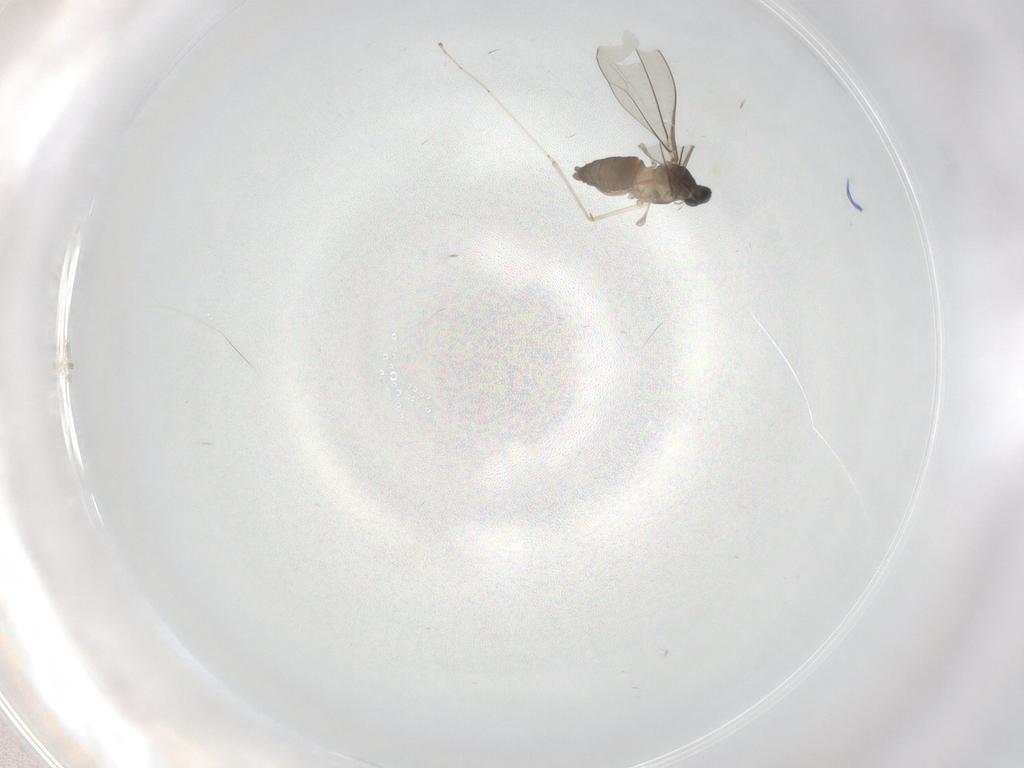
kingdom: Animalia
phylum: Arthropoda
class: Insecta
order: Diptera
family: Cecidomyiidae
